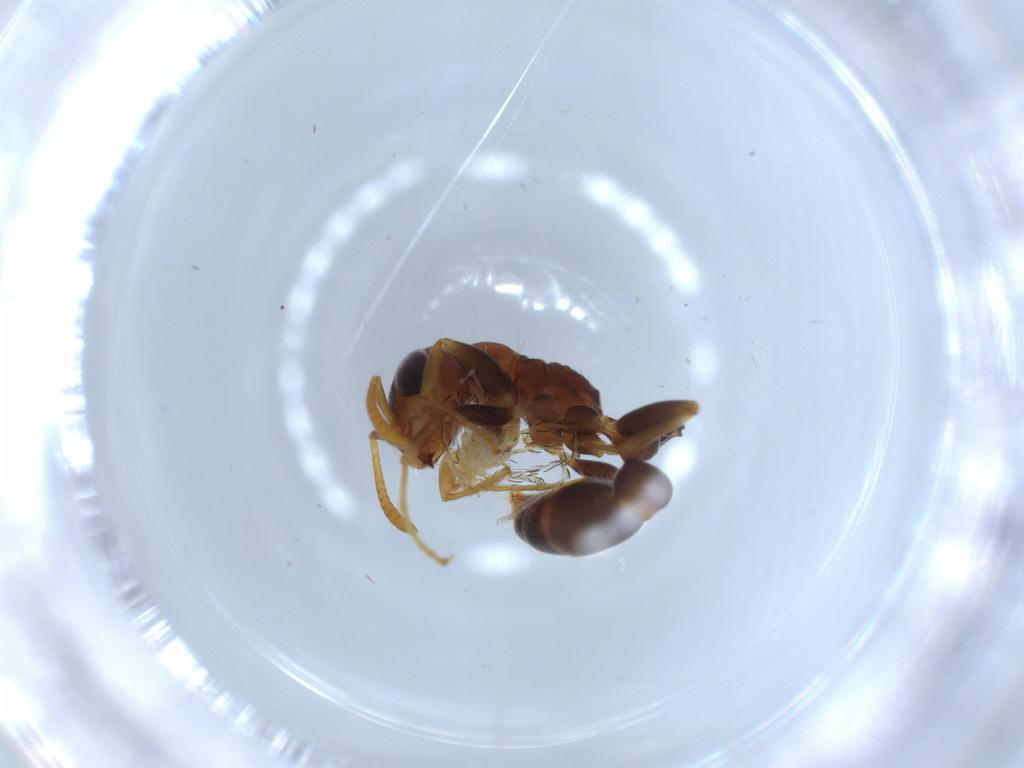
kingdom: Animalia
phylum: Arthropoda
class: Arachnida
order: Trombidiformes
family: Erythraeidae
